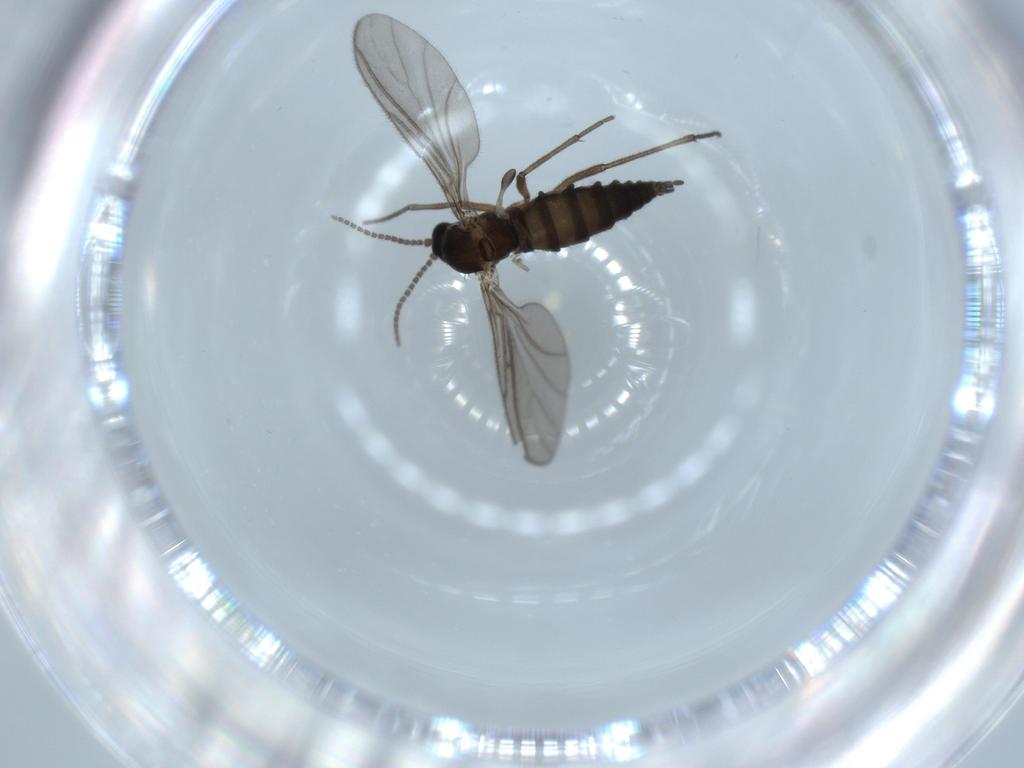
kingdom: Animalia
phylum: Arthropoda
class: Insecta
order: Diptera
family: Sciaridae
